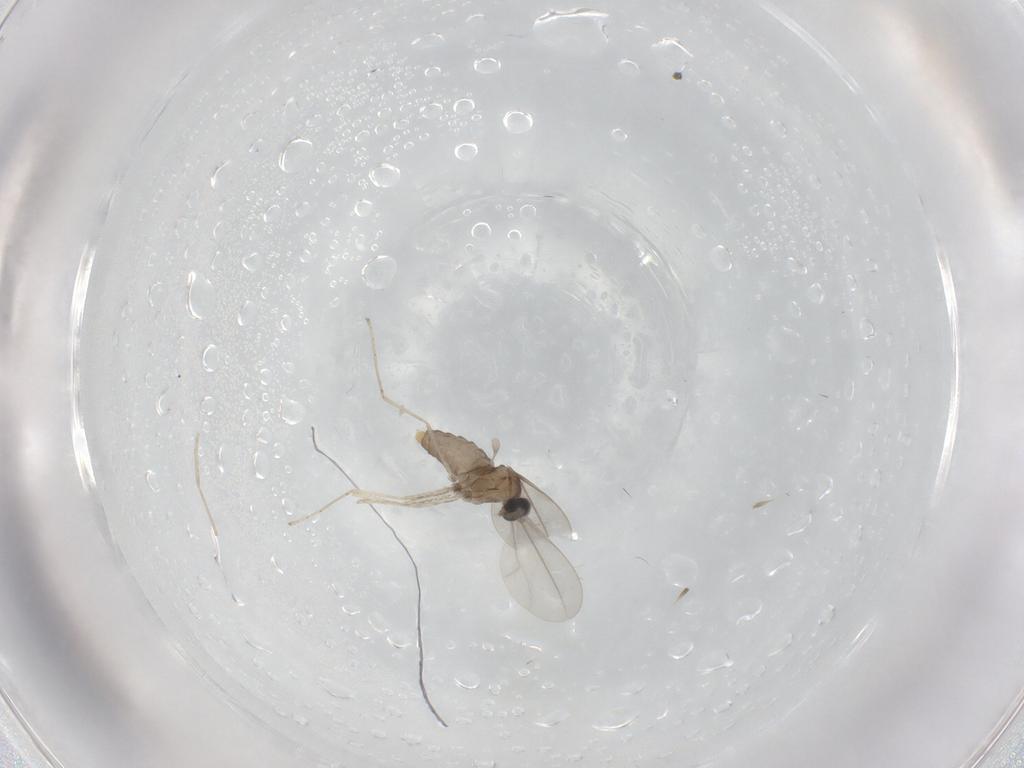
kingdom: Animalia
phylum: Arthropoda
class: Insecta
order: Diptera
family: Cecidomyiidae
